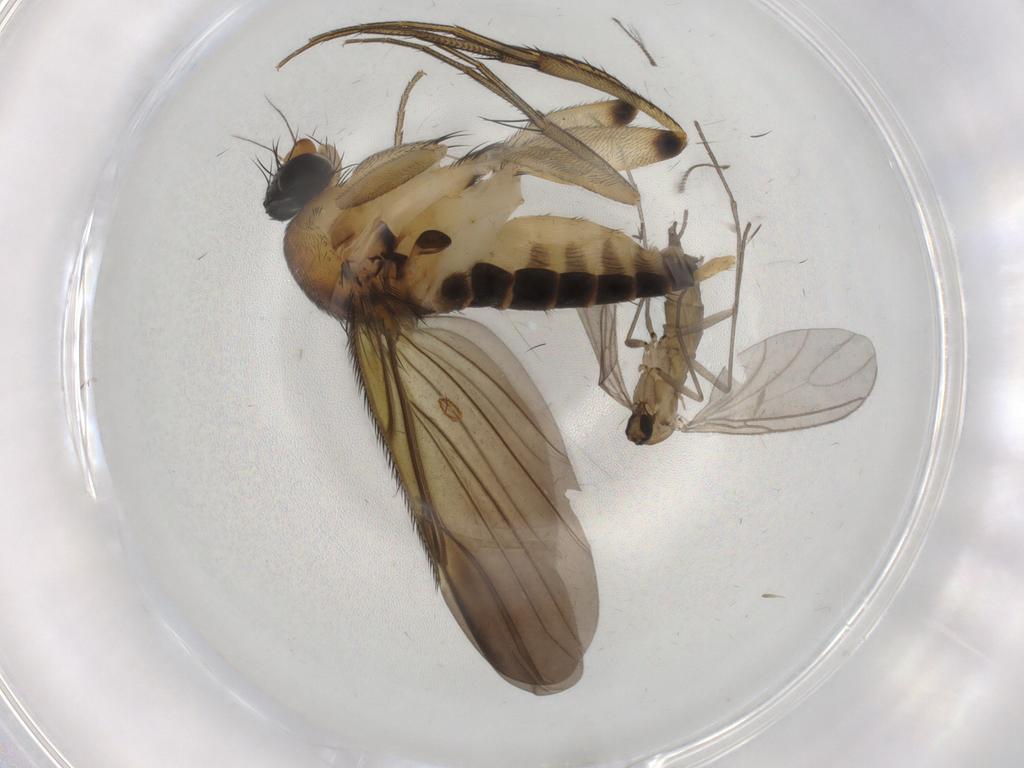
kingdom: Animalia
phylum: Arthropoda
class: Insecta
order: Diptera
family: Sciaridae
